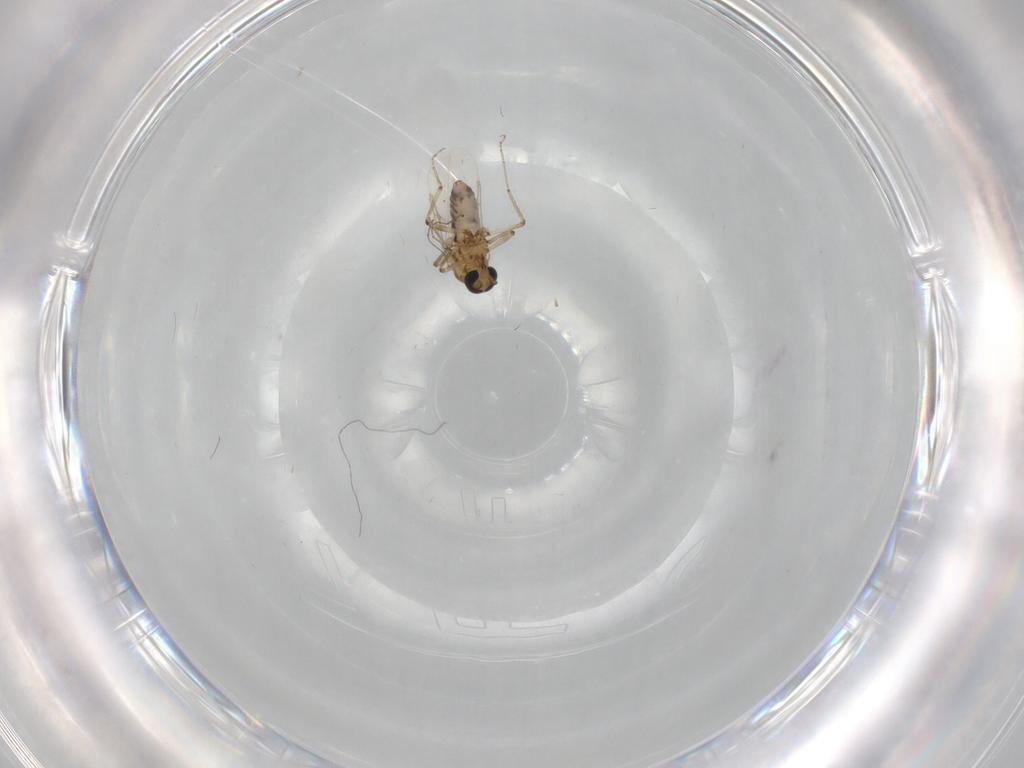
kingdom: Animalia
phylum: Arthropoda
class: Insecta
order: Diptera
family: Ceratopogonidae
